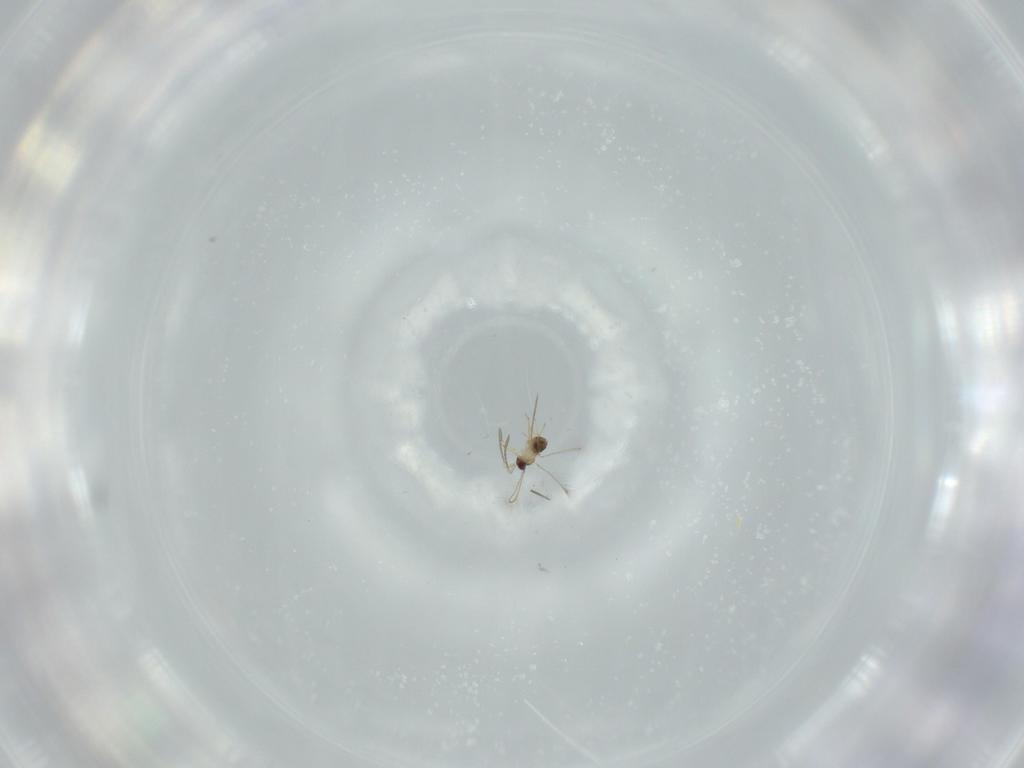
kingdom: Animalia
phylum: Arthropoda
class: Insecta
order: Hymenoptera
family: Mymaridae
